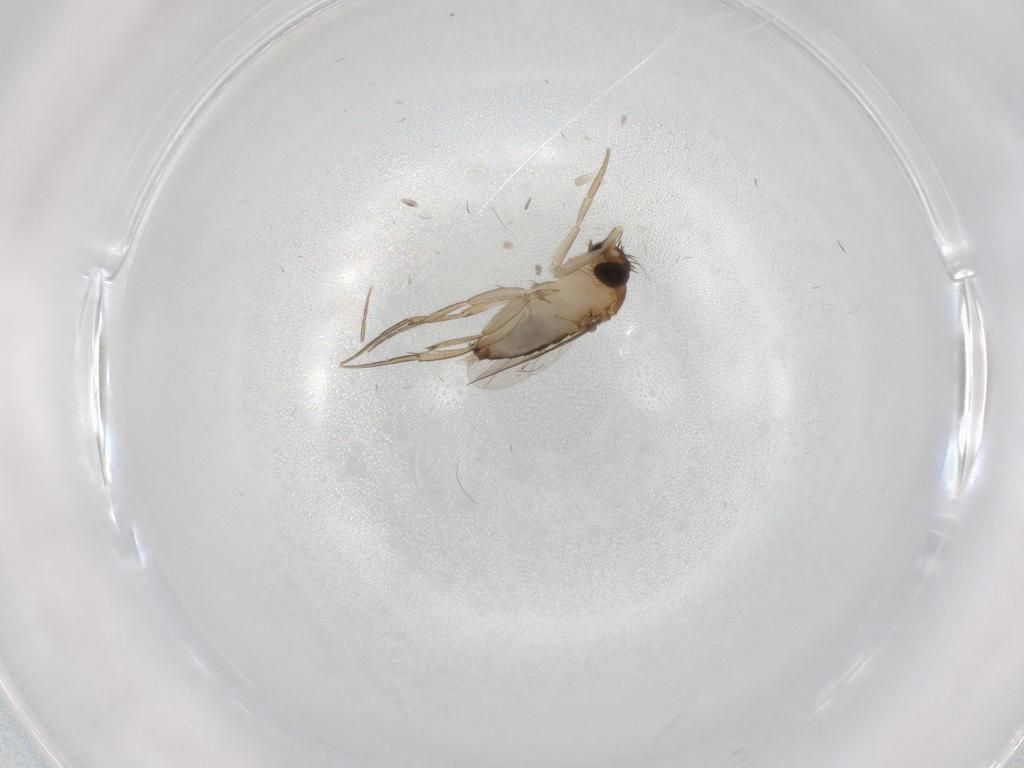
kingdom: Animalia
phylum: Arthropoda
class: Insecta
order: Diptera
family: Phoridae
